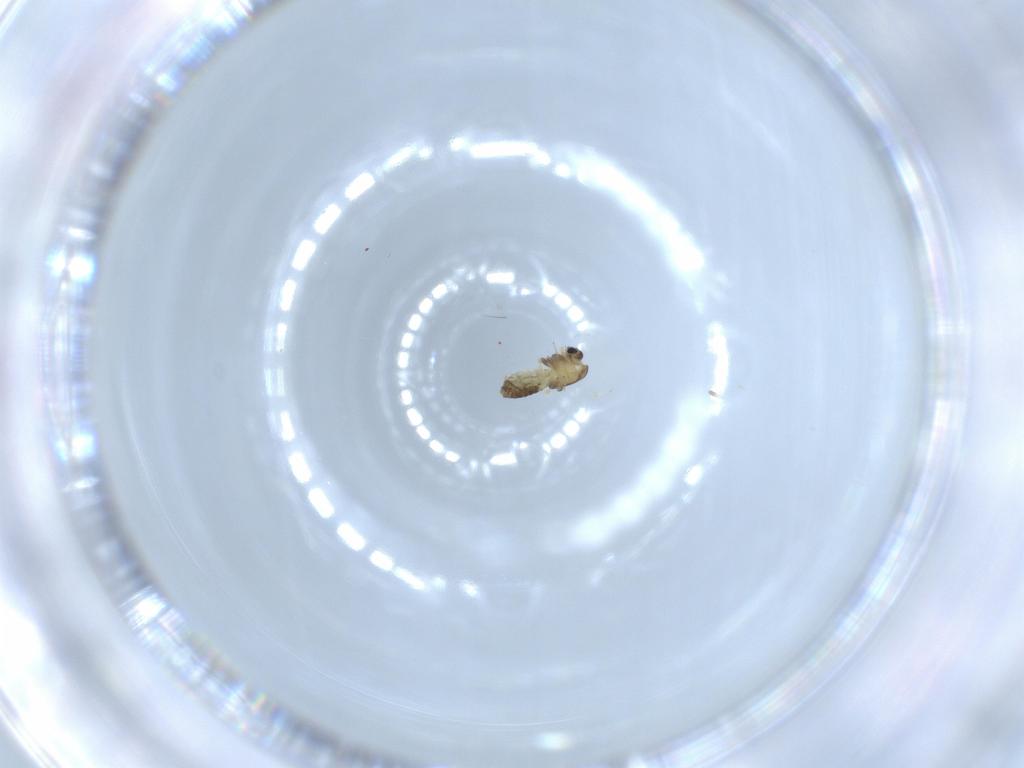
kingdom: Animalia
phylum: Arthropoda
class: Insecta
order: Diptera
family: Chironomidae
